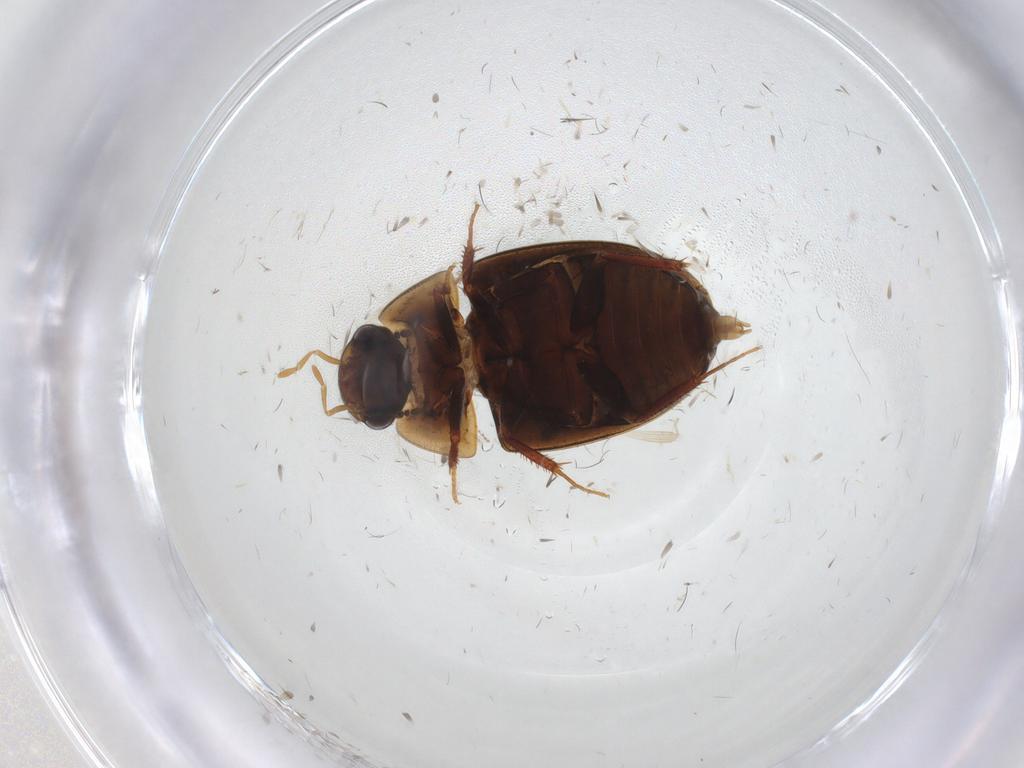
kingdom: Animalia
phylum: Arthropoda
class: Insecta
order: Coleoptera
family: Hydrophilidae
